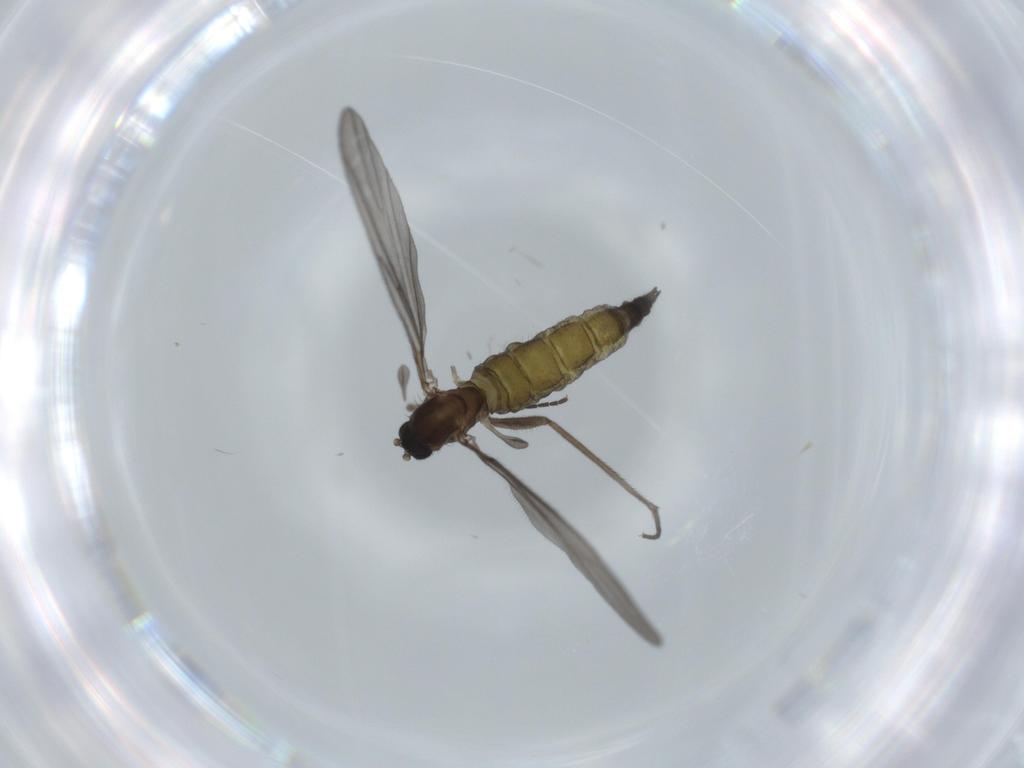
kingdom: Animalia
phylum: Arthropoda
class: Insecta
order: Diptera
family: Sciaridae
